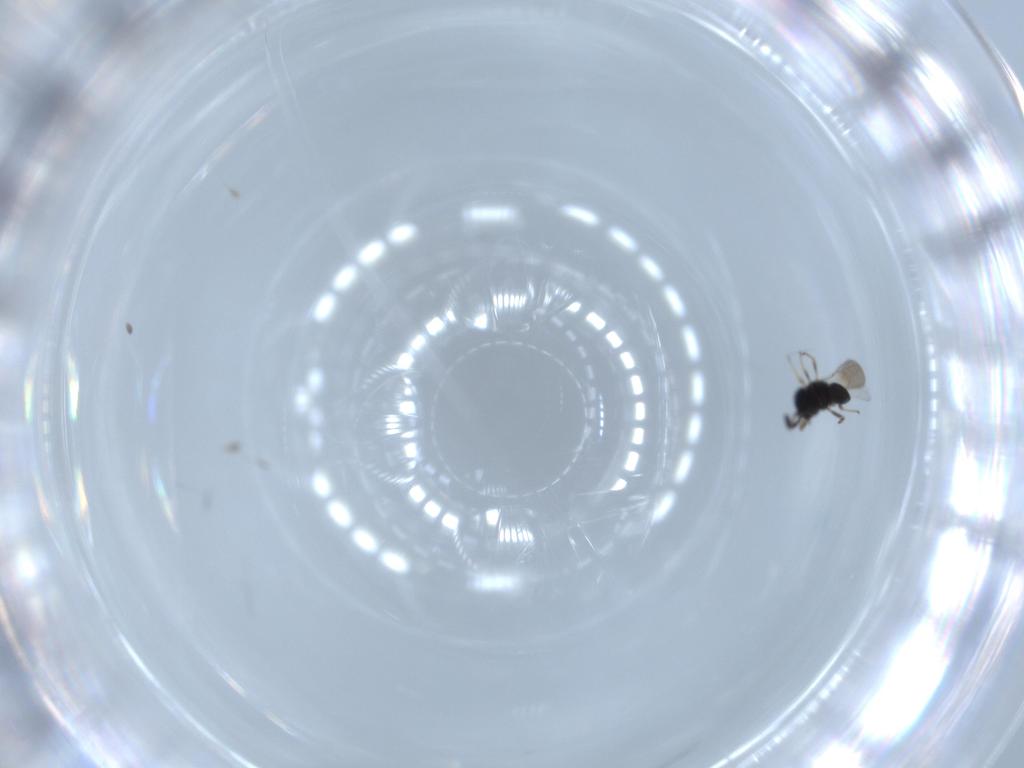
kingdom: Animalia
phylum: Arthropoda
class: Insecta
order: Hymenoptera
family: Scelionidae
